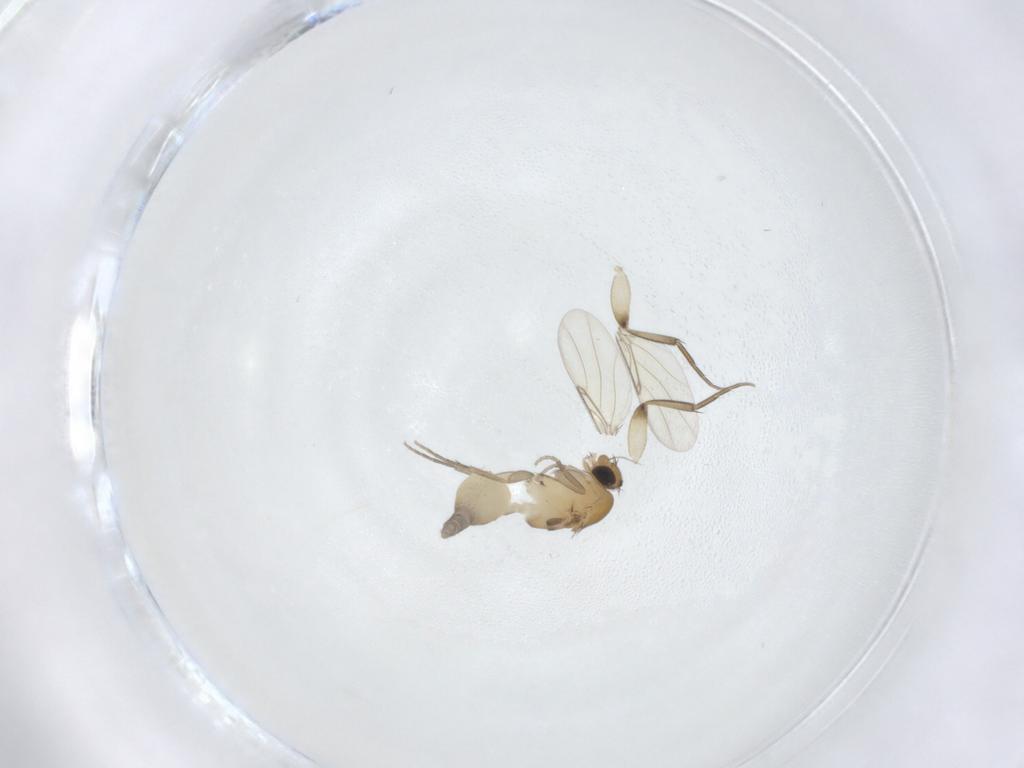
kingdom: Animalia
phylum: Arthropoda
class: Insecta
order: Diptera
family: Phoridae
